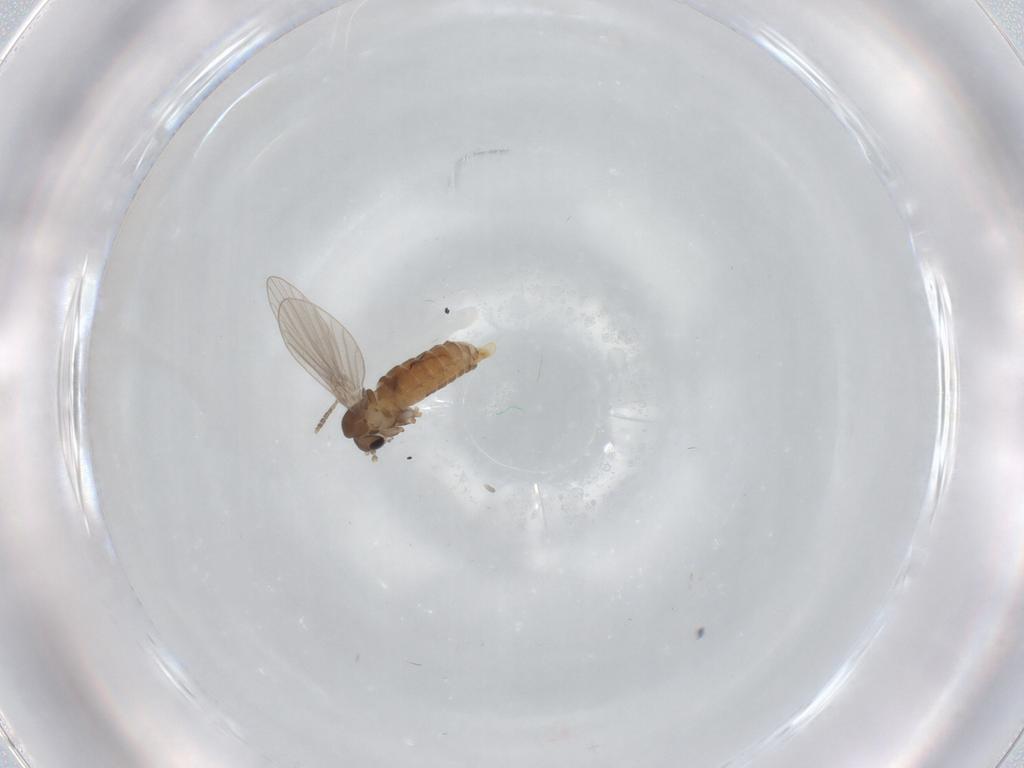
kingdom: Animalia
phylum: Arthropoda
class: Insecta
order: Diptera
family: Cecidomyiidae
